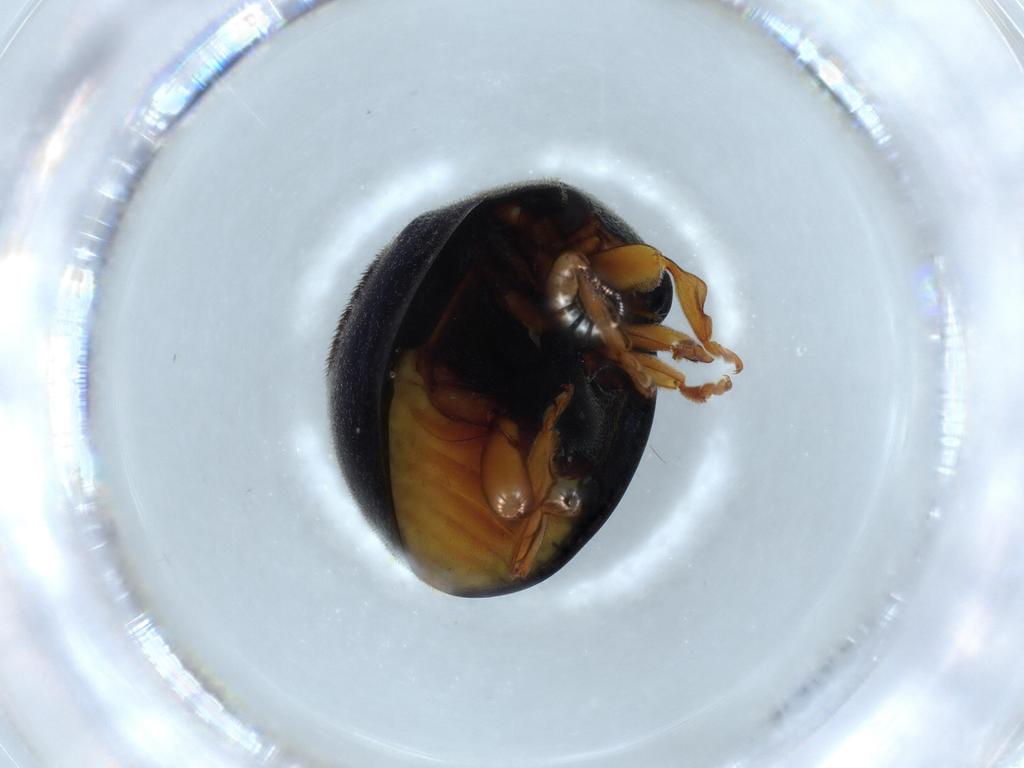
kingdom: Animalia
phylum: Arthropoda
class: Insecta
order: Coleoptera
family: Coccinellidae
